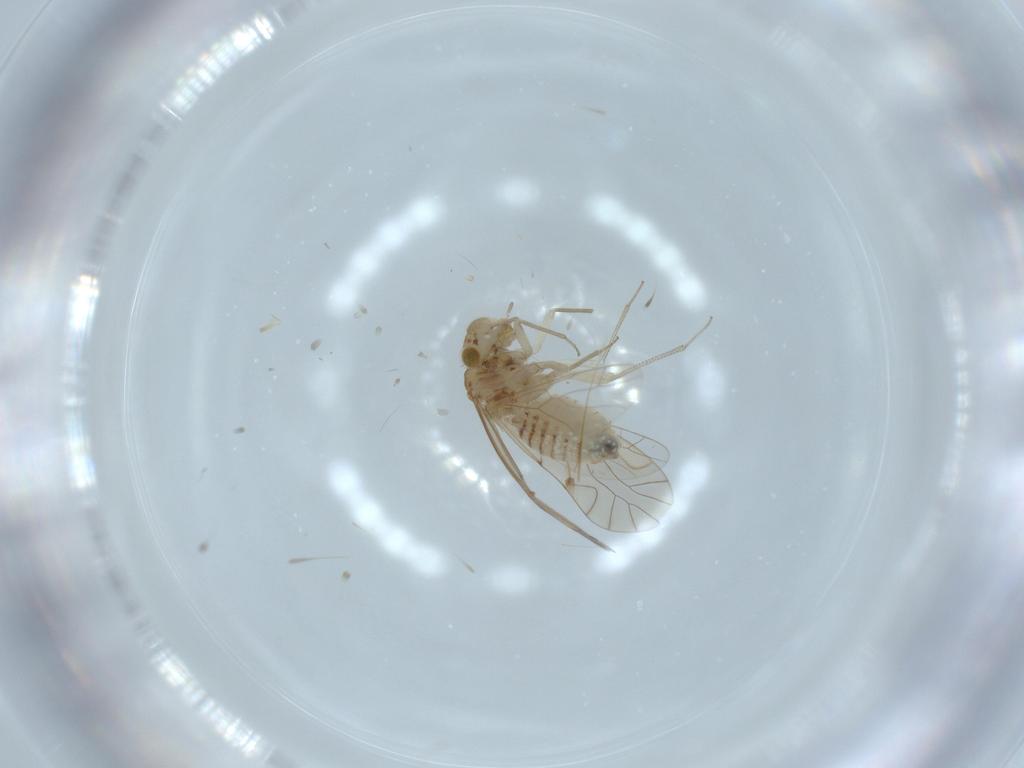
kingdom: Animalia
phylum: Arthropoda
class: Insecta
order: Psocodea
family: Lachesillidae
